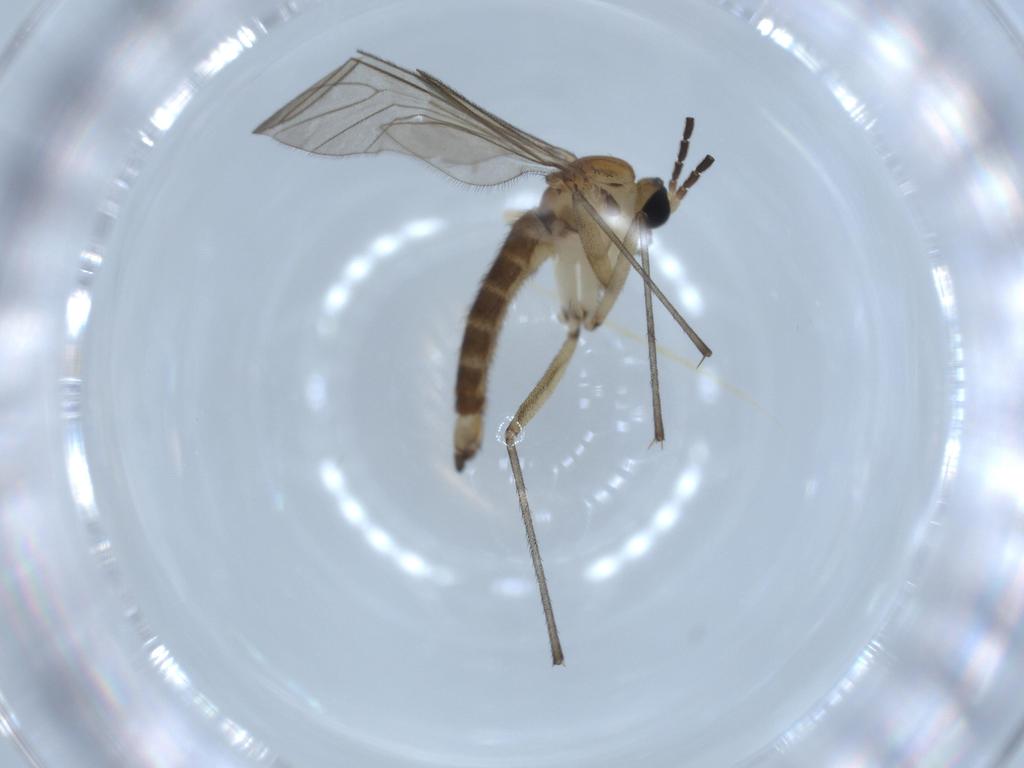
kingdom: Animalia
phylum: Arthropoda
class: Insecta
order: Diptera
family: Sciaridae
